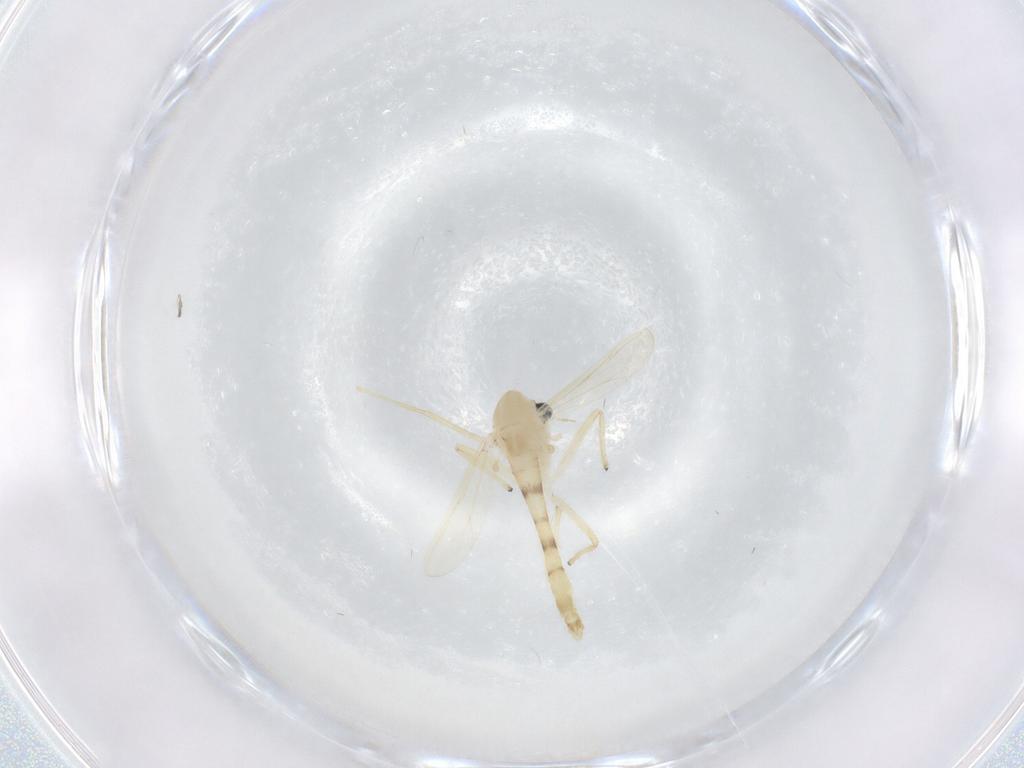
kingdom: Animalia
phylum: Arthropoda
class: Insecta
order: Diptera
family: Chironomidae
